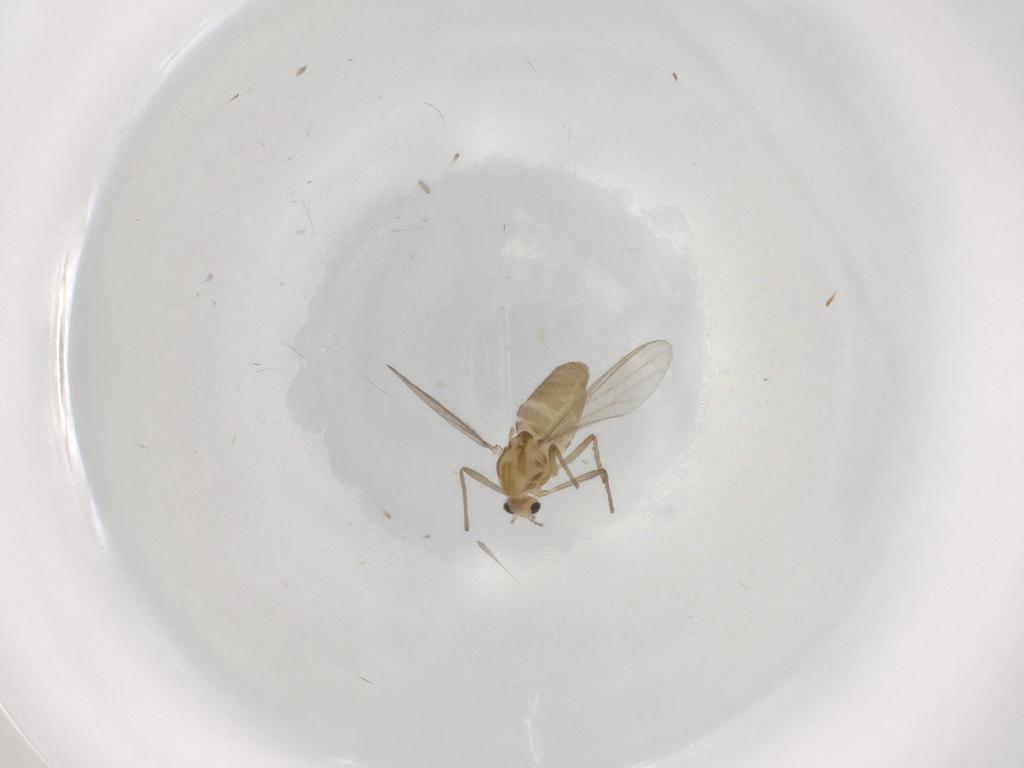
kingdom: Animalia
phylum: Arthropoda
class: Insecta
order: Diptera
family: Chironomidae
